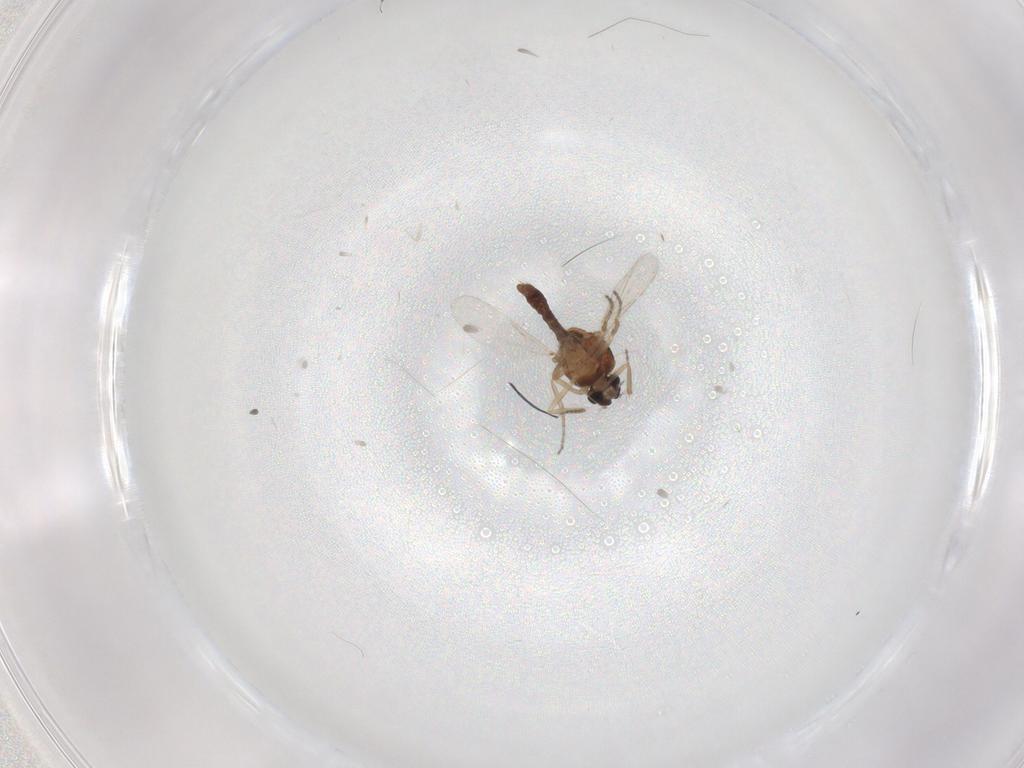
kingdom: Animalia
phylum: Arthropoda
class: Insecta
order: Diptera
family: Ceratopogonidae
